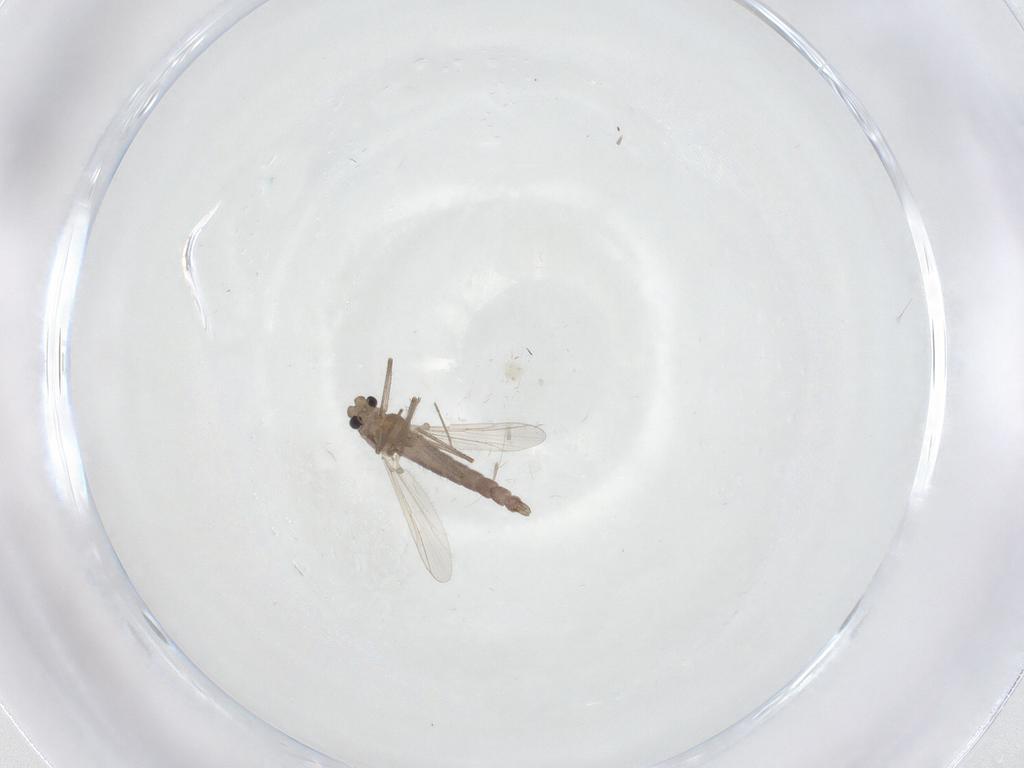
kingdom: Animalia
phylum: Arthropoda
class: Insecta
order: Diptera
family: Chironomidae
